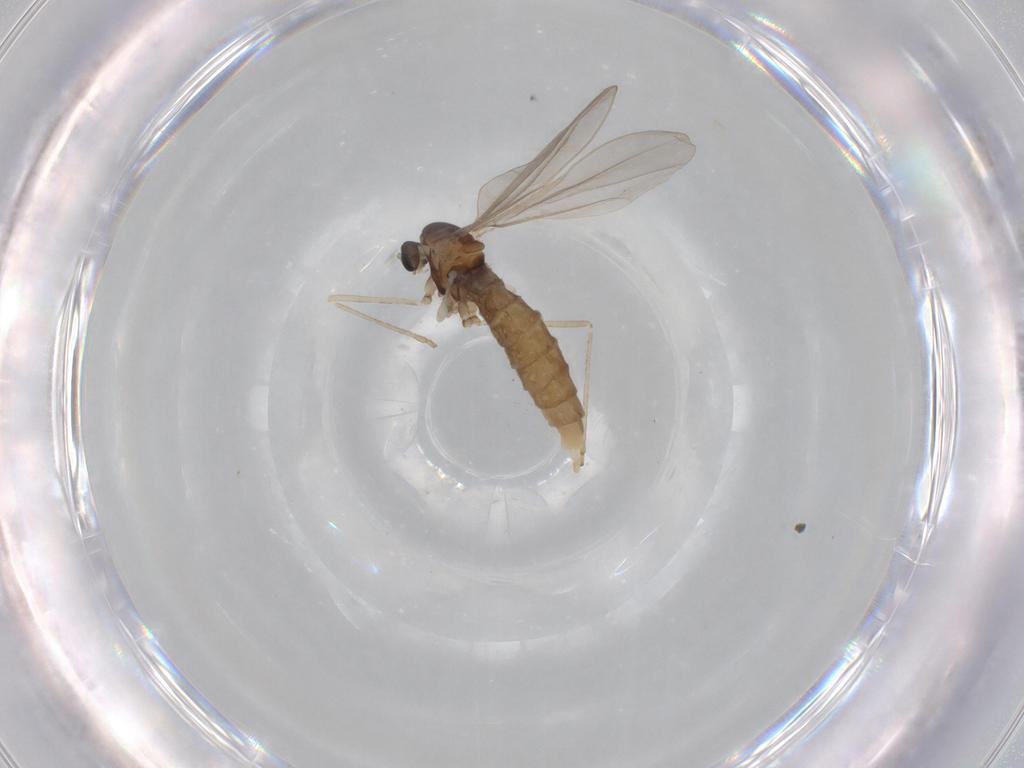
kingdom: Animalia
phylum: Arthropoda
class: Insecta
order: Diptera
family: Cecidomyiidae
